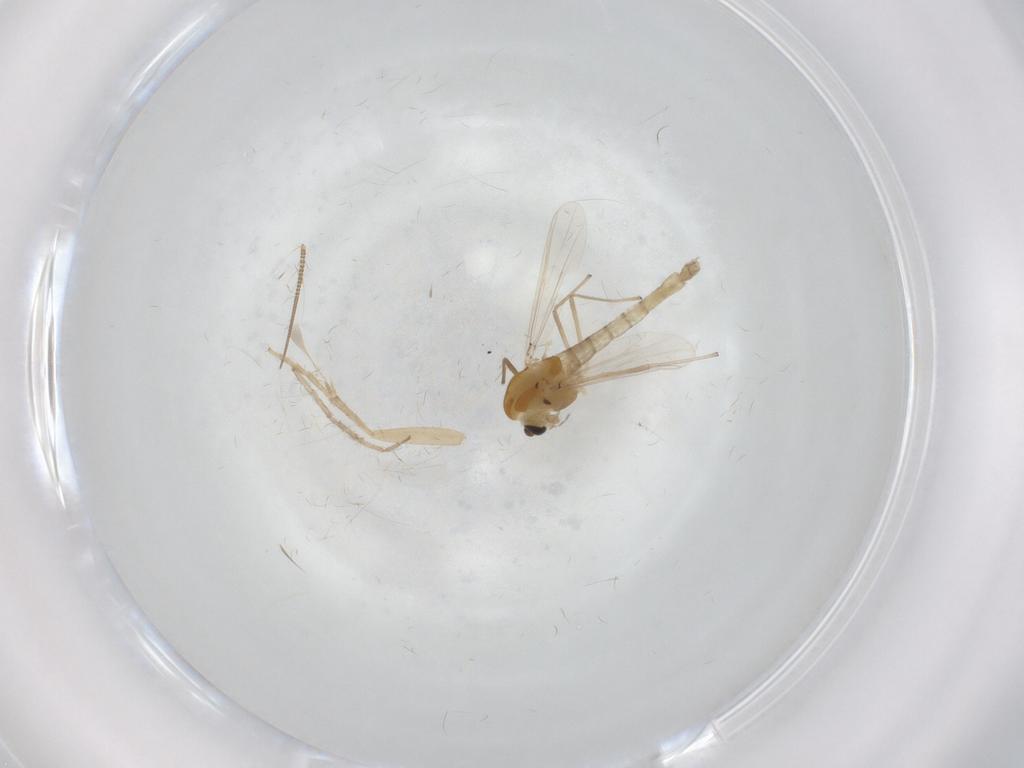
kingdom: Animalia
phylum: Arthropoda
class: Insecta
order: Diptera
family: Chironomidae
